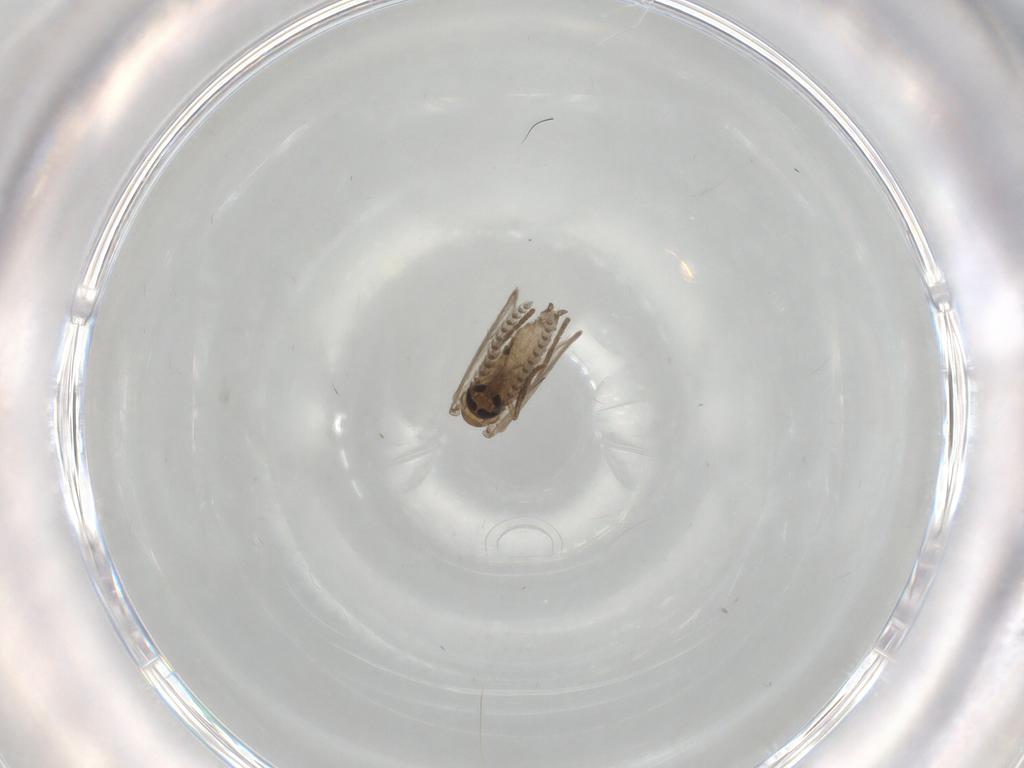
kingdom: Animalia
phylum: Arthropoda
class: Insecta
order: Diptera
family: Psychodidae
